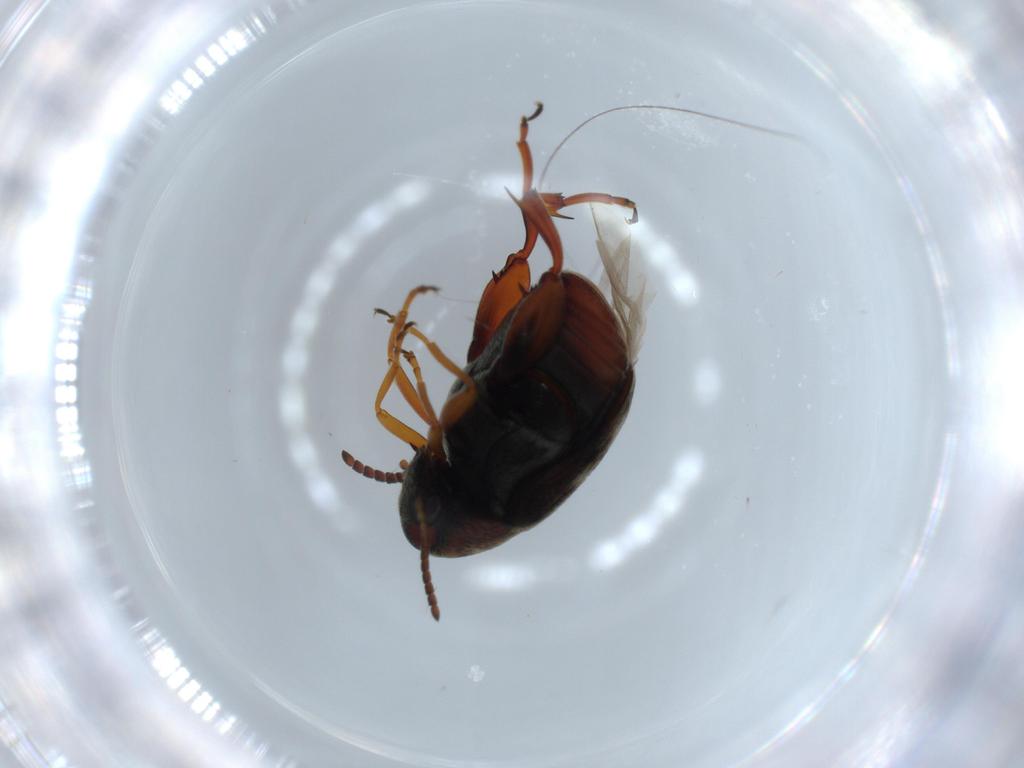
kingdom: Animalia
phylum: Arthropoda
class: Insecta
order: Coleoptera
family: Chrysomelidae
